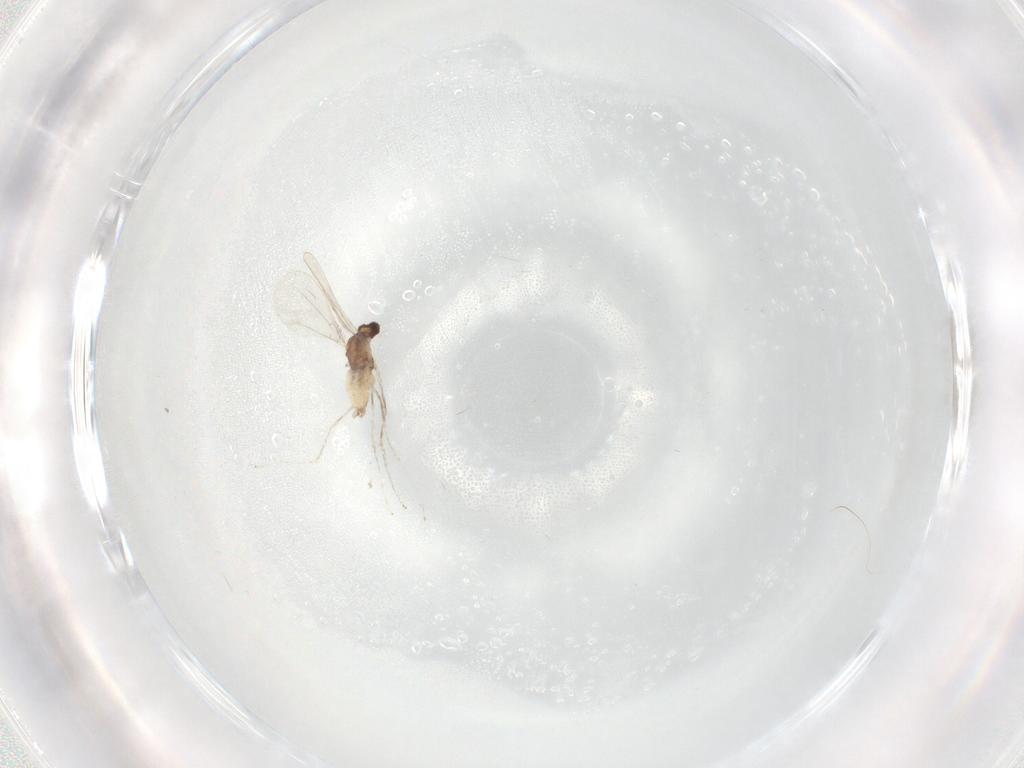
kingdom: Animalia
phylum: Arthropoda
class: Insecta
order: Diptera
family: Cecidomyiidae
